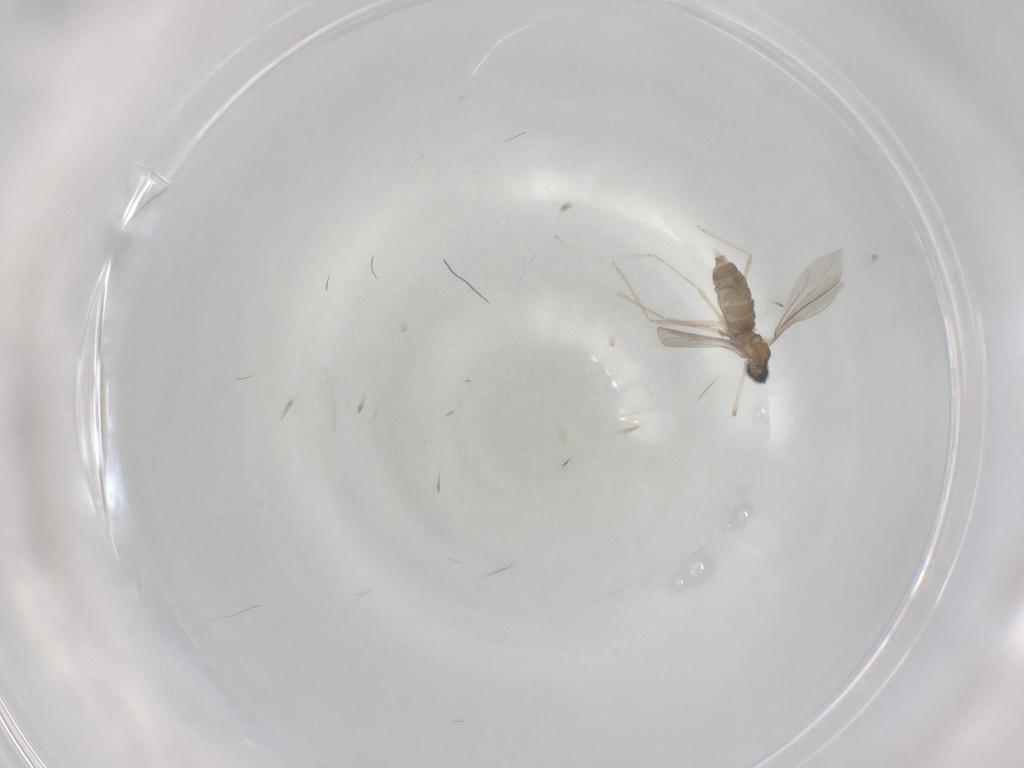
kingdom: Animalia
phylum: Arthropoda
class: Insecta
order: Diptera
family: Cecidomyiidae
